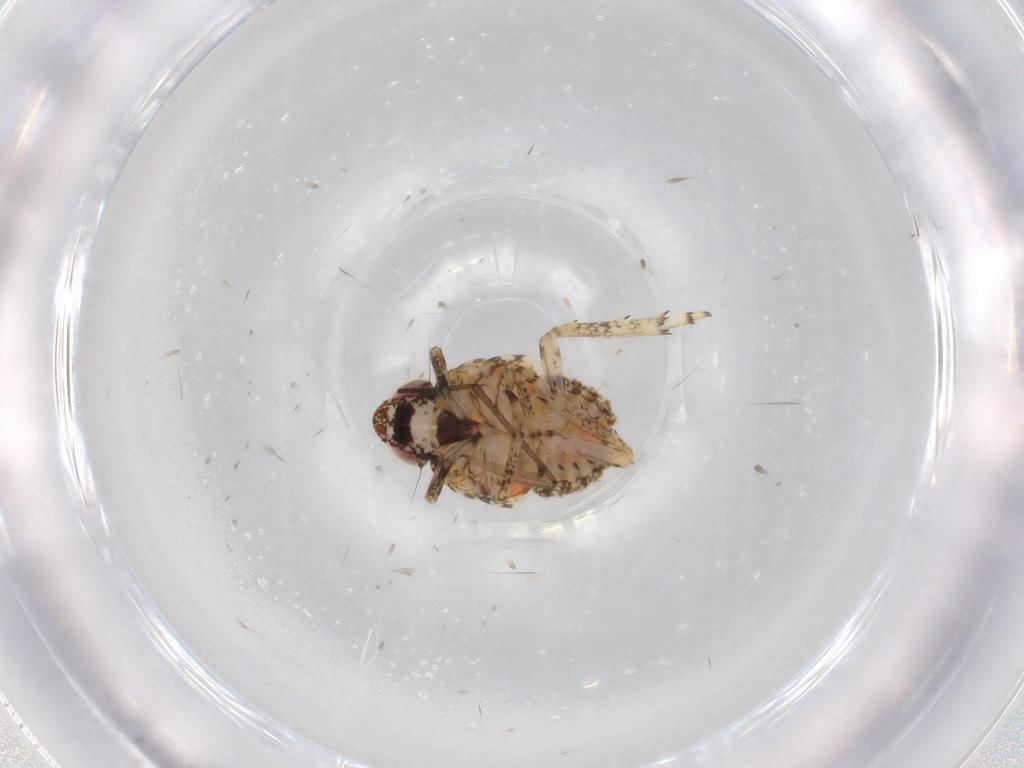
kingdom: Animalia
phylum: Arthropoda
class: Insecta
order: Hemiptera
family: Issidae
